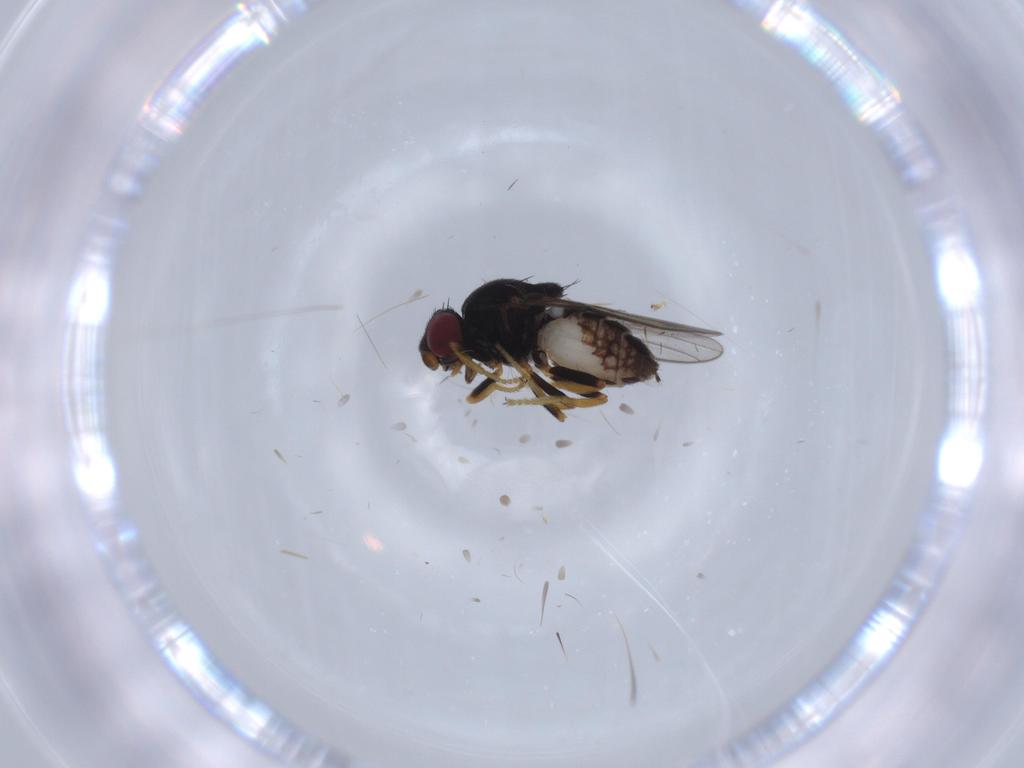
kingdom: Animalia
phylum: Arthropoda
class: Insecta
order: Diptera
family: Chloropidae
